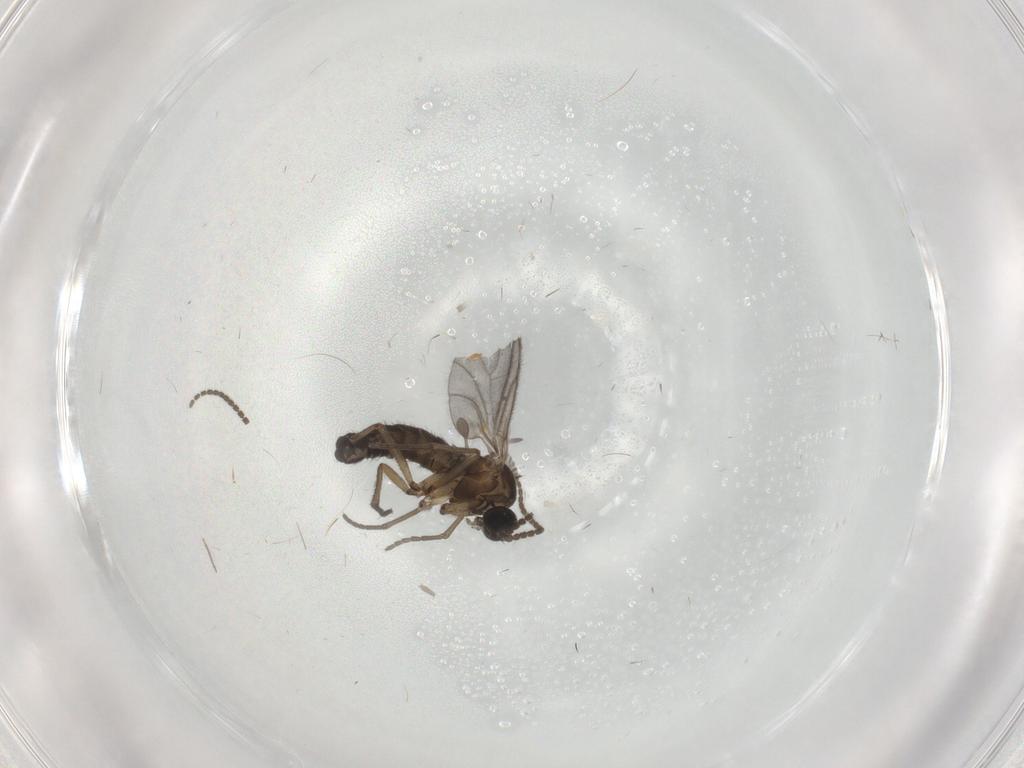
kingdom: Animalia
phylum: Arthropoda
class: Insecta
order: Diptera
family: Sciaridae
